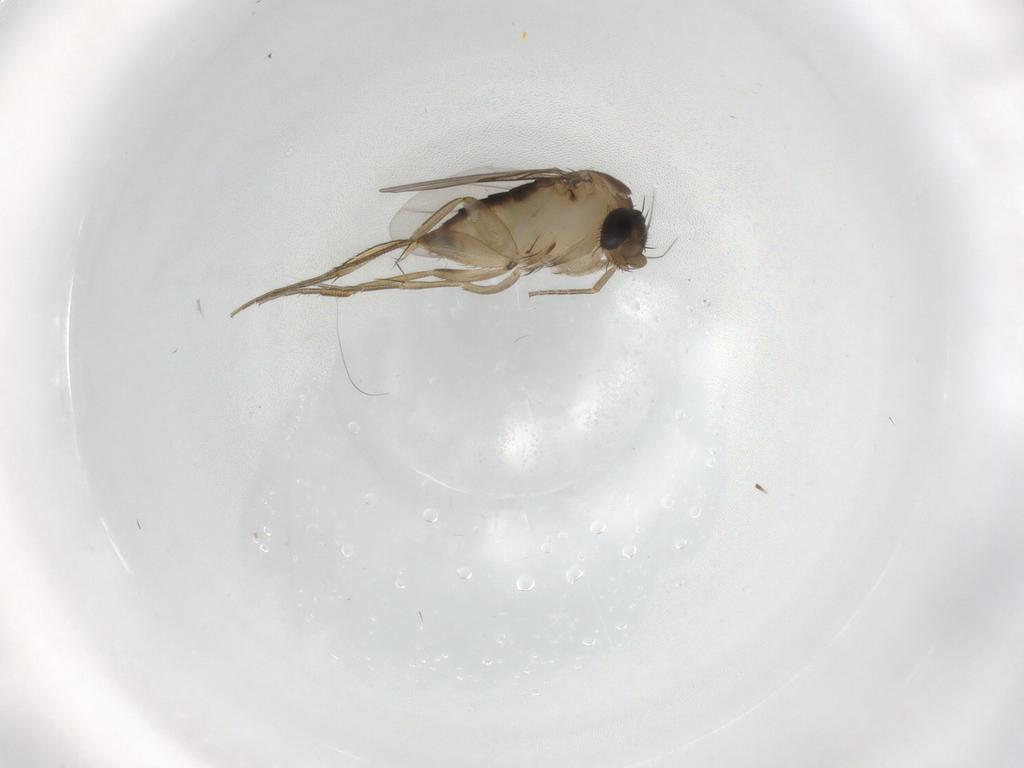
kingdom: Animalia
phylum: Arthropoda
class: Insecta
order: Diptera
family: Phoridae
